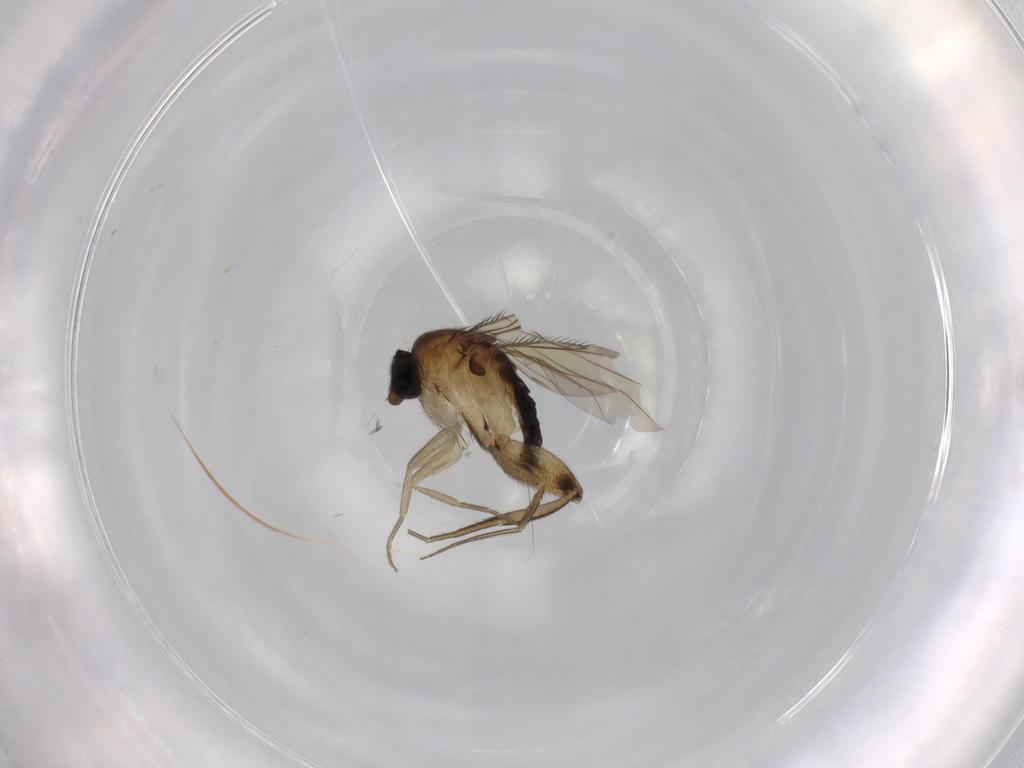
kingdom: Animalia
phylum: Arthropoda
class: Insecta
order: Diptera
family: Phoridae
